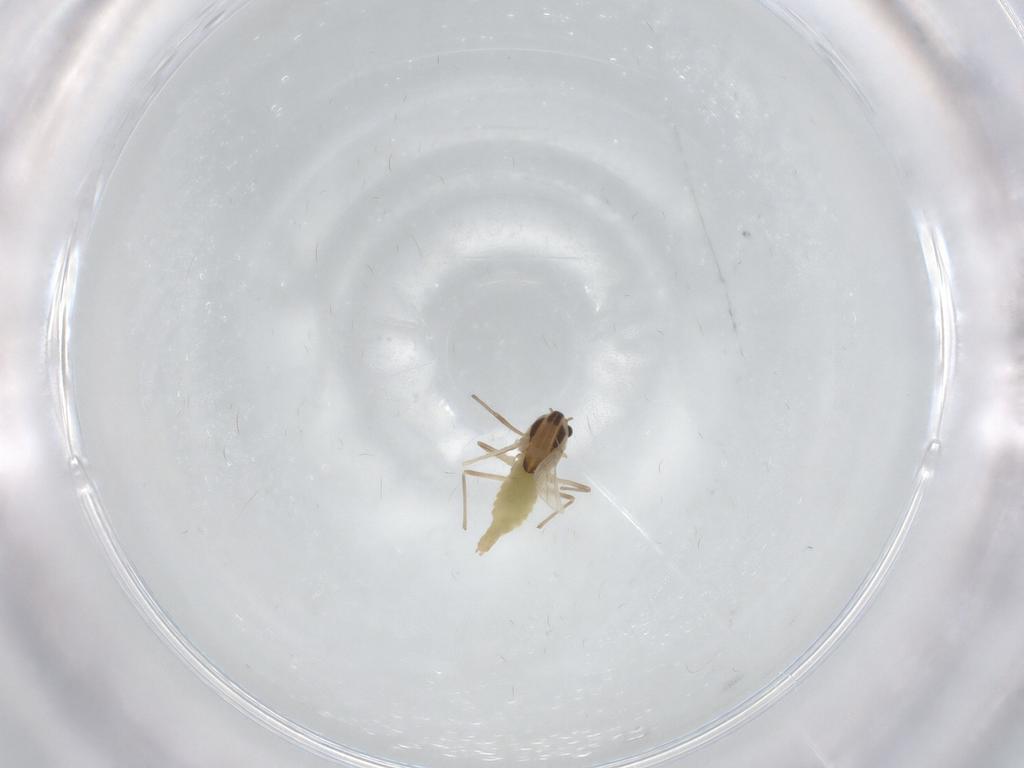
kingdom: Animalia
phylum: Arthropoda
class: Insecta
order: Diptera
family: Chironomidae
